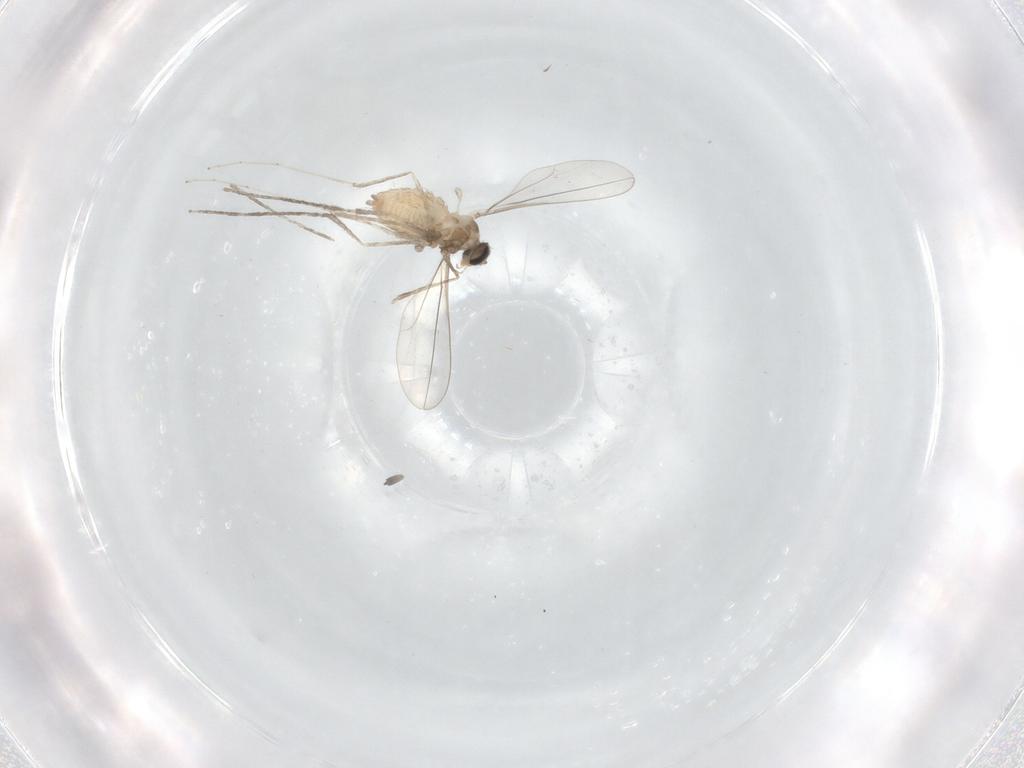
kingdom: Animalia
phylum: Arthropoda
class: Insecta
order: Diptera
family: Cecidomyiidae
